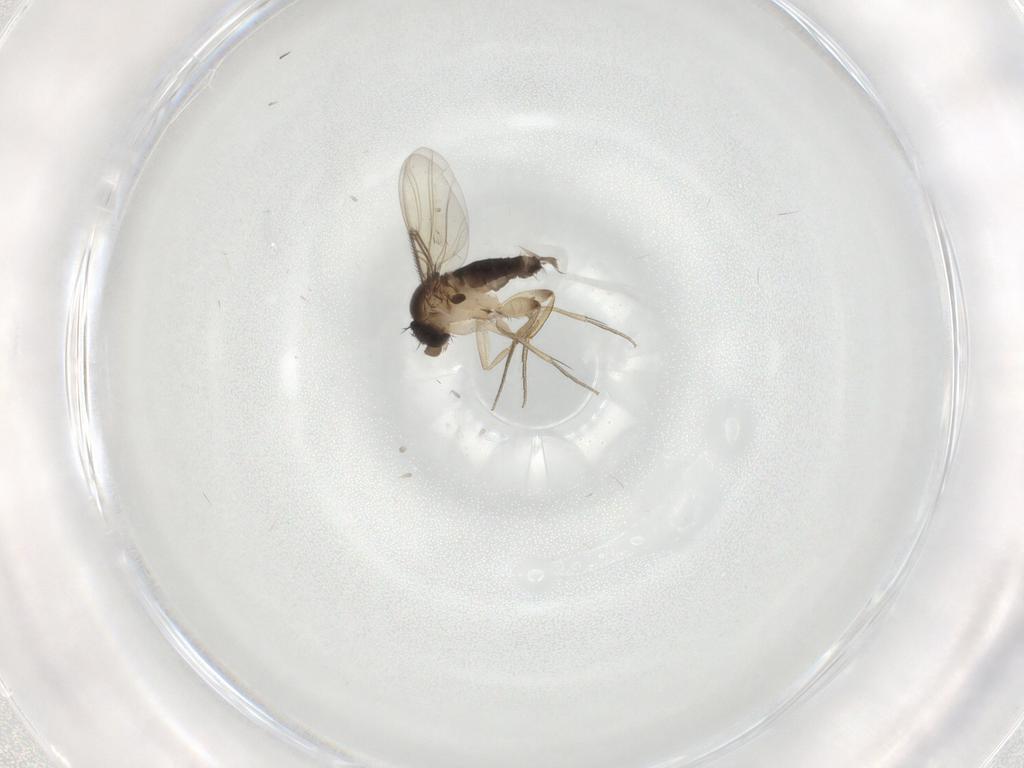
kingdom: Animalia
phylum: Arthropoda
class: Insecta
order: Diptera
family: Phoridae
